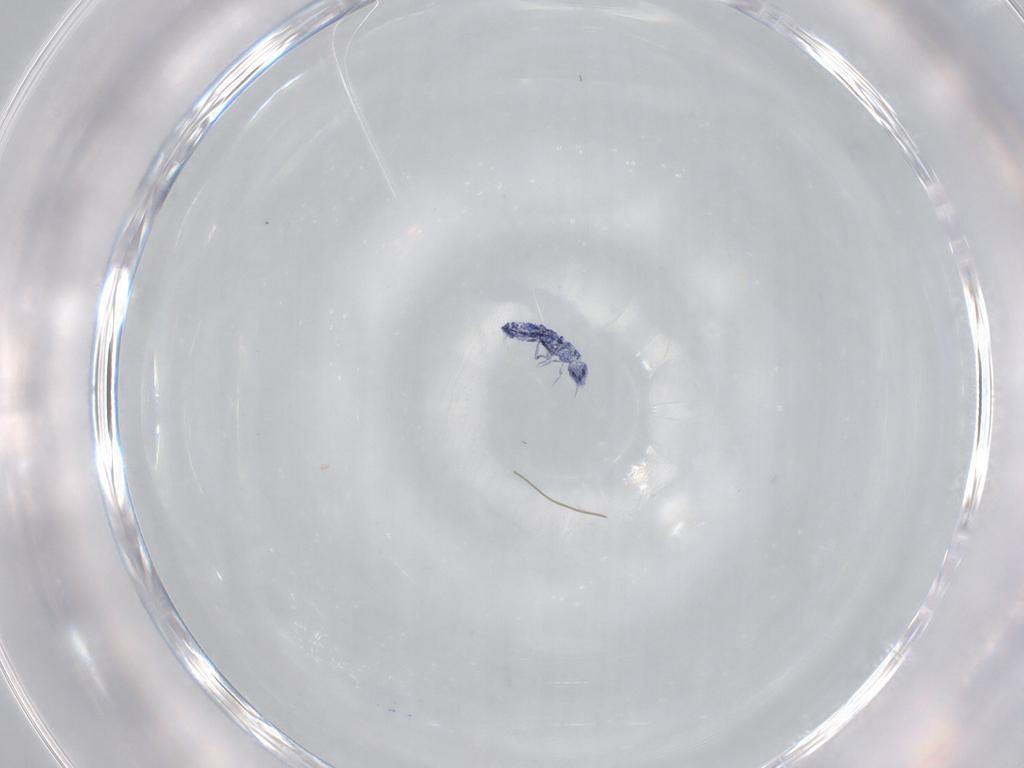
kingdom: Animalia
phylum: Arthropoda
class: Collembola
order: Entomobryomorpha
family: Entomobryidae
